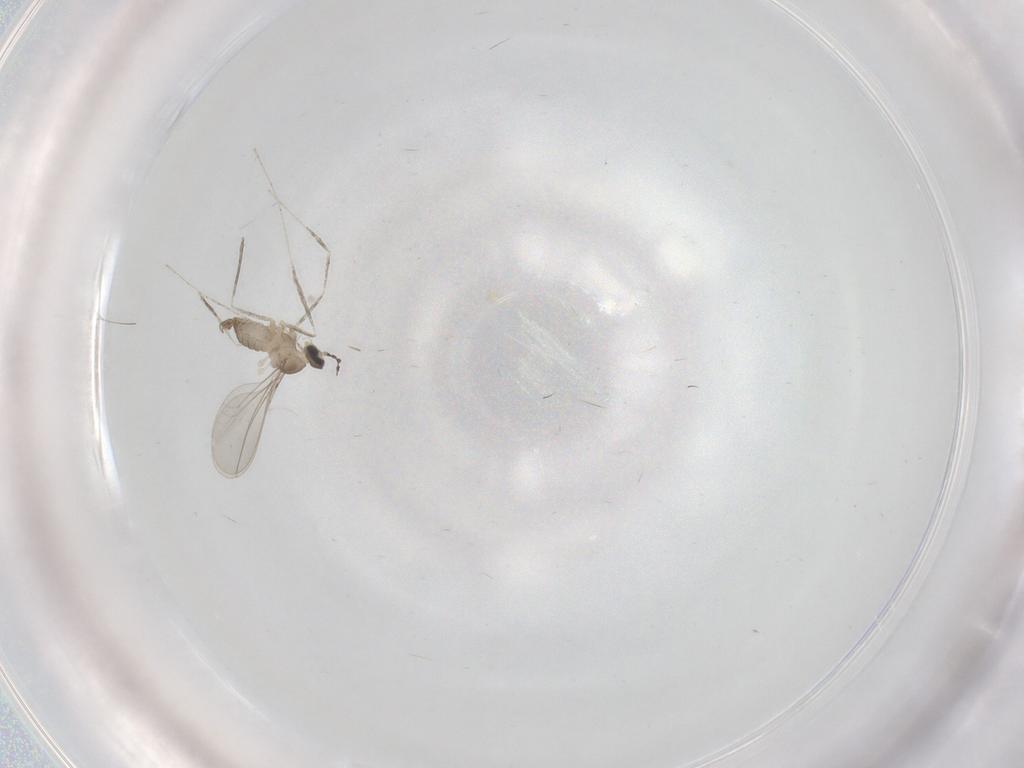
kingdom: Animalia
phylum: Arthropoda
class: Insecta
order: Diptera
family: Cecidomyiidae
